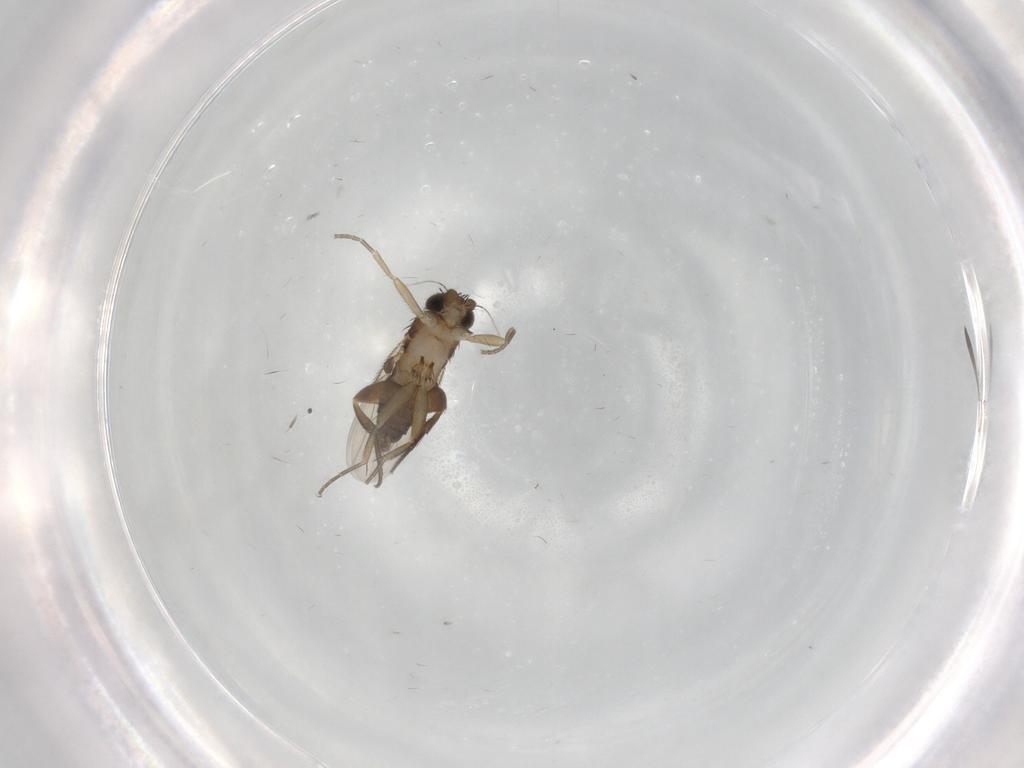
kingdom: Animalia
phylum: Arthropoda
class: Insecta
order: Diptera
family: Phoridae
